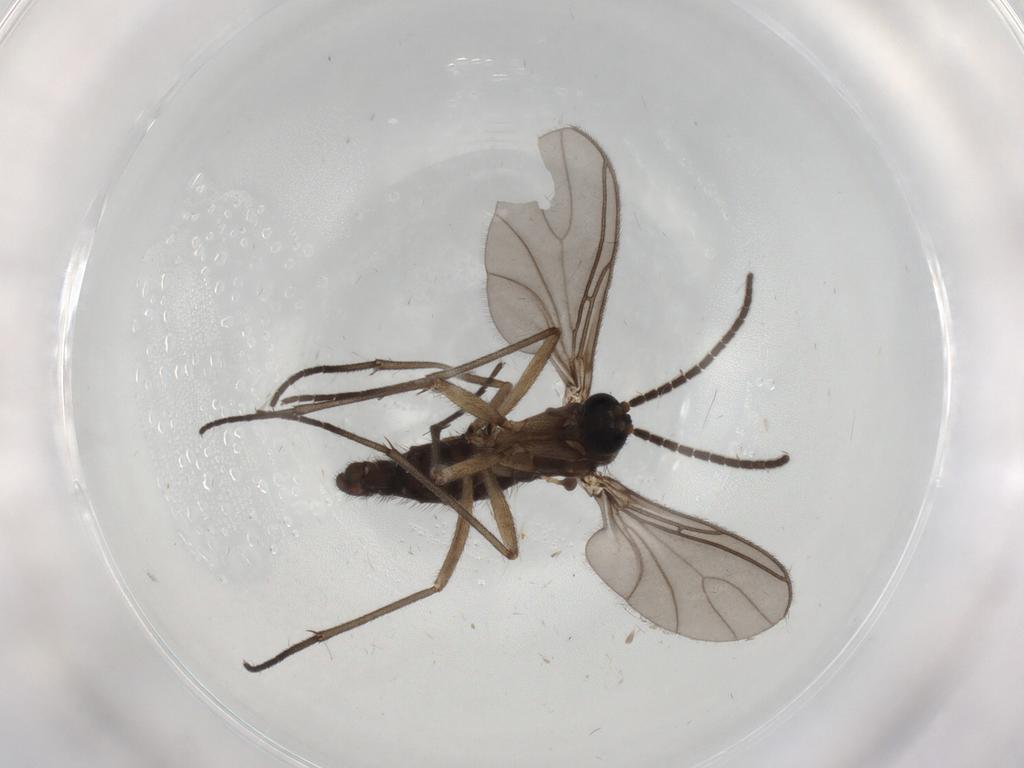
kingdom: Animalia
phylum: Arthropoda
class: Insecta
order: Diptera
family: Sciaridae
